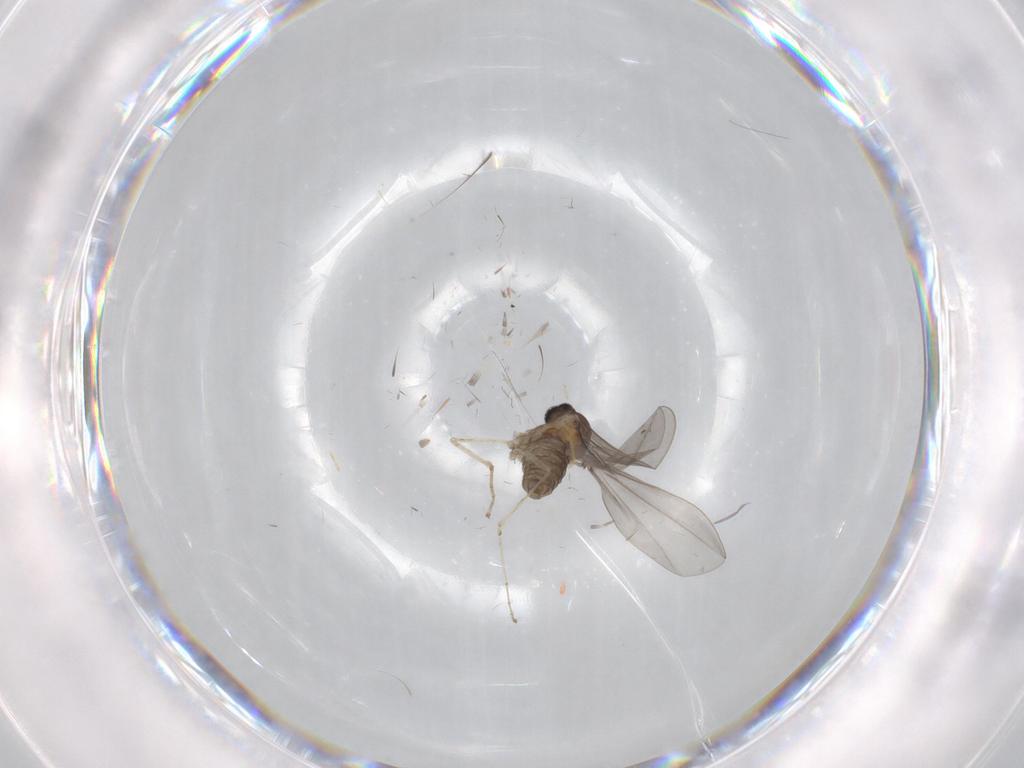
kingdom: Animalia
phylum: Arthropoda
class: Insecta
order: Diptera
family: Cecidomyiidae
